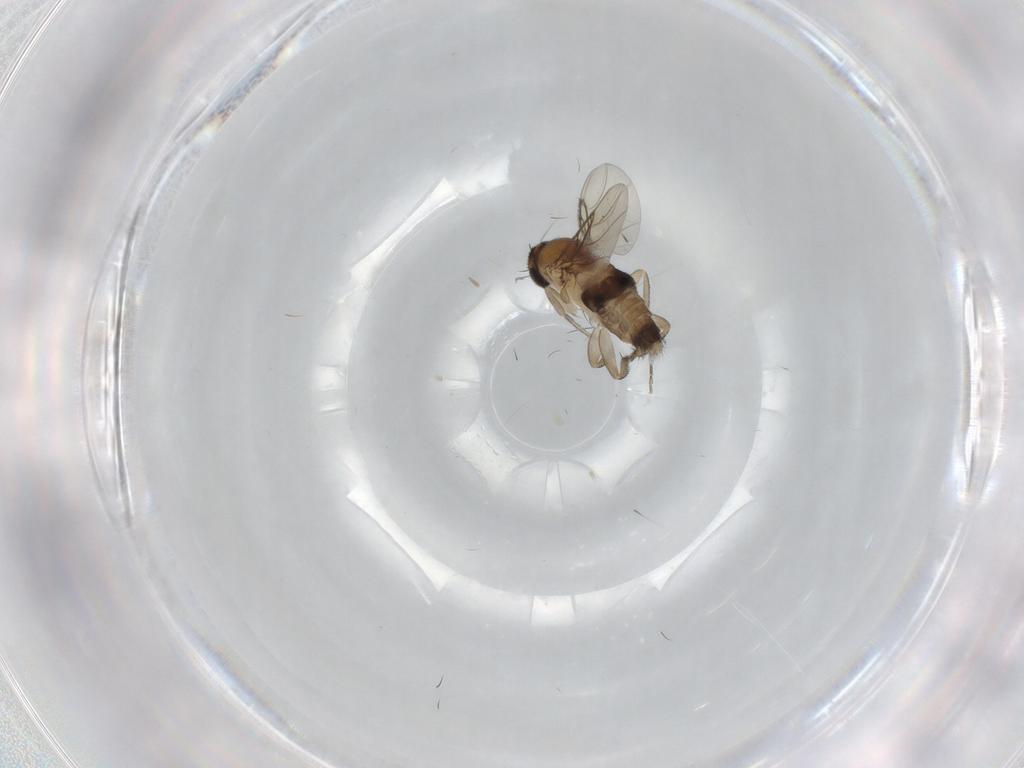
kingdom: Animalia
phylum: Arthropoda
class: Insecta
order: Diptera
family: Phoridae
